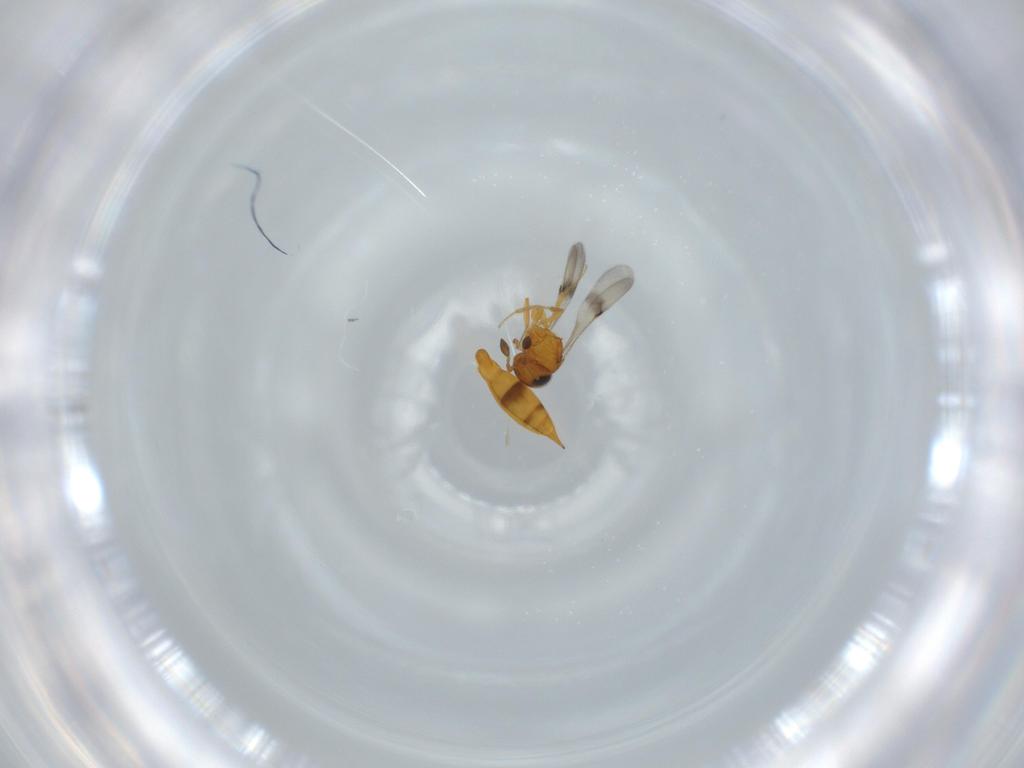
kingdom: Animalia
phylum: Arthropoda
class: Insecta
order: Hymenoptera
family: Scelionidae
